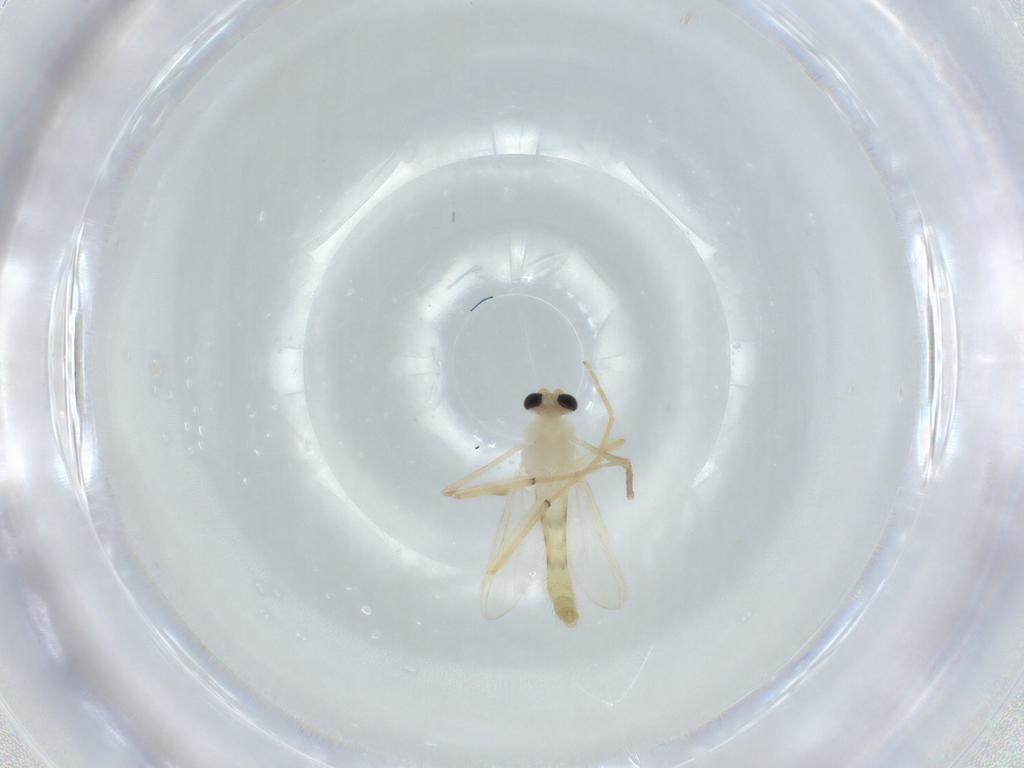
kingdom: Animalia
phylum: Arthropoda
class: Insecta
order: Diptera
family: Chironomidae
